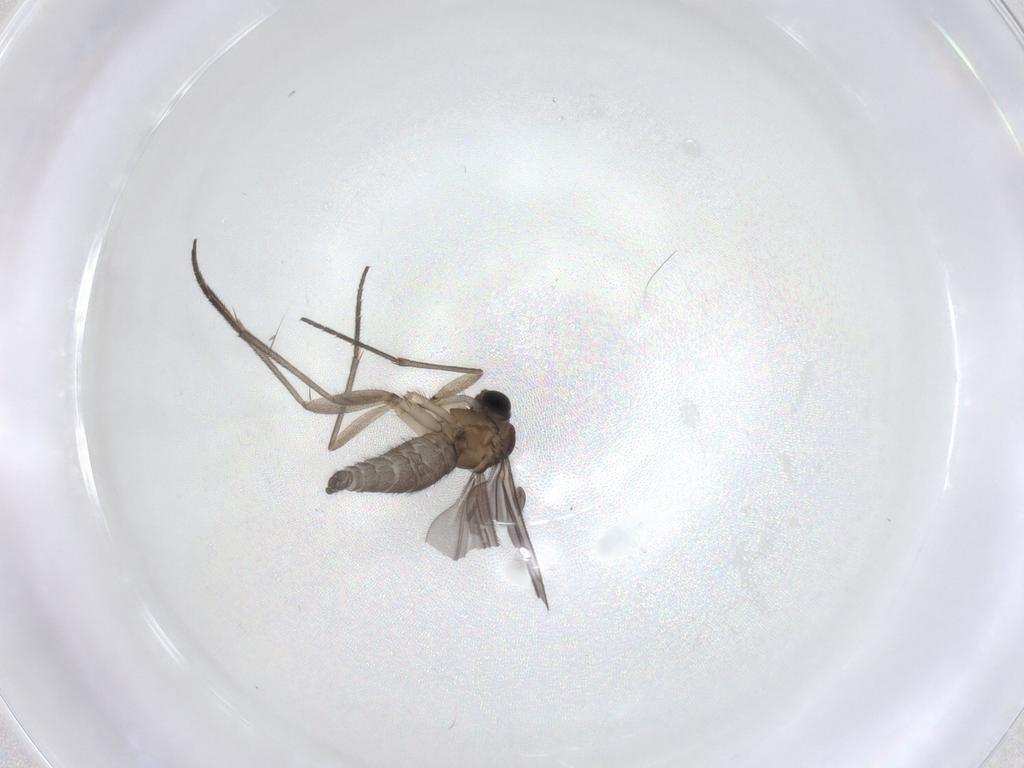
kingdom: Animalia
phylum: Arthropoda
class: Insecta
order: Diptera
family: Sciaridae
